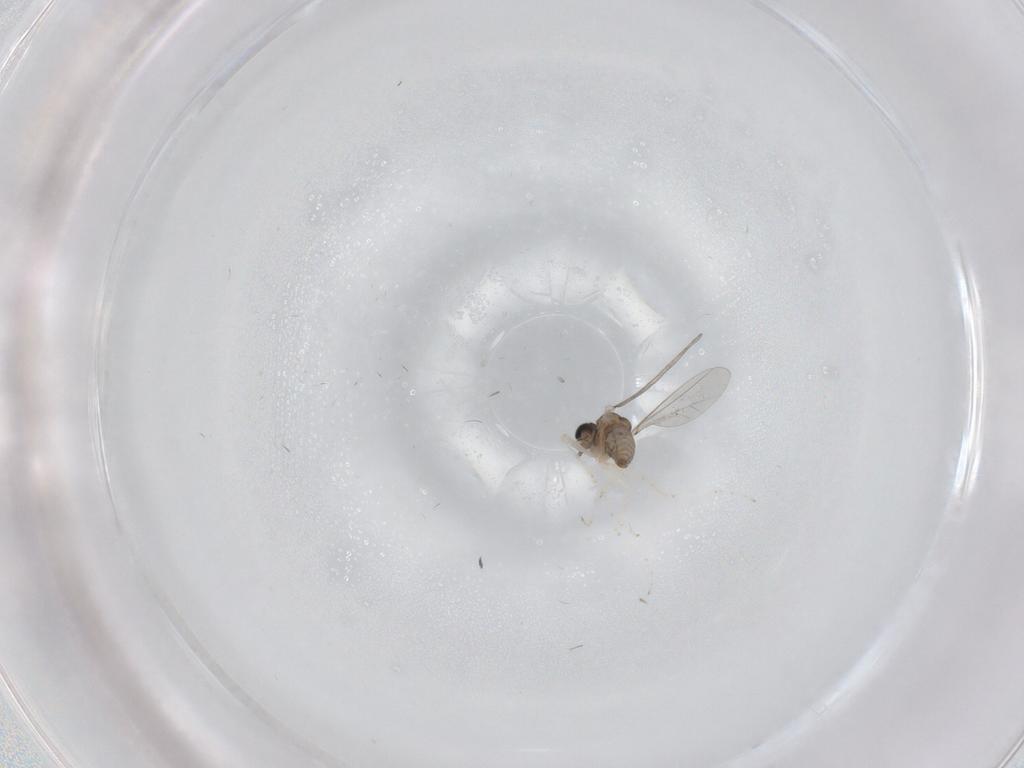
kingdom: Animalia
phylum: Arthropoda
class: Insecta
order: Diptera
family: Cecidomyiidae
